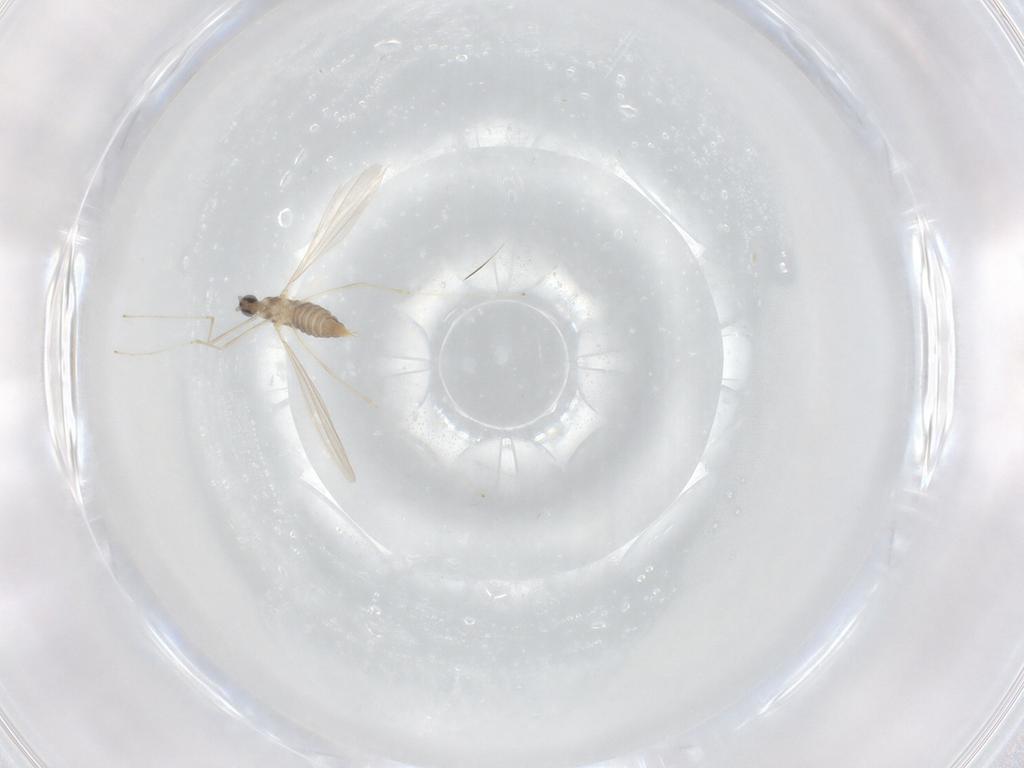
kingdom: Animalia
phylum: Arthropoda
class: Insecta
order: Diptera
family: Cecidomyiidae
